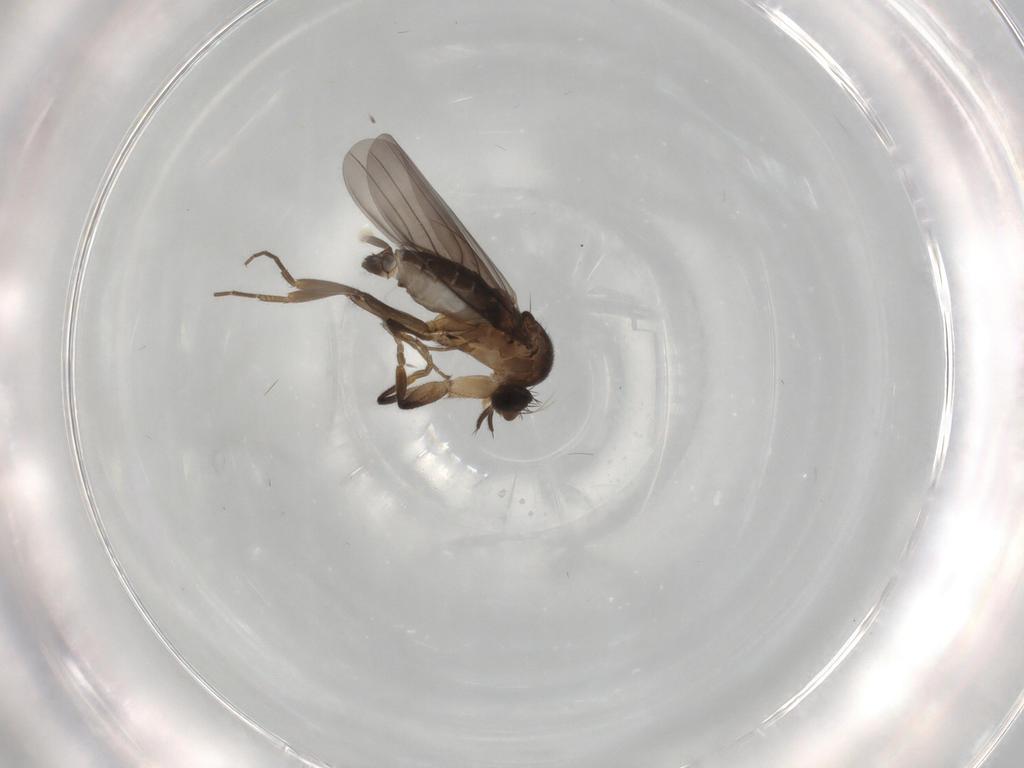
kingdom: Animalia
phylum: Arthropoda
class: Insecta
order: Diptera
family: Phoridae
